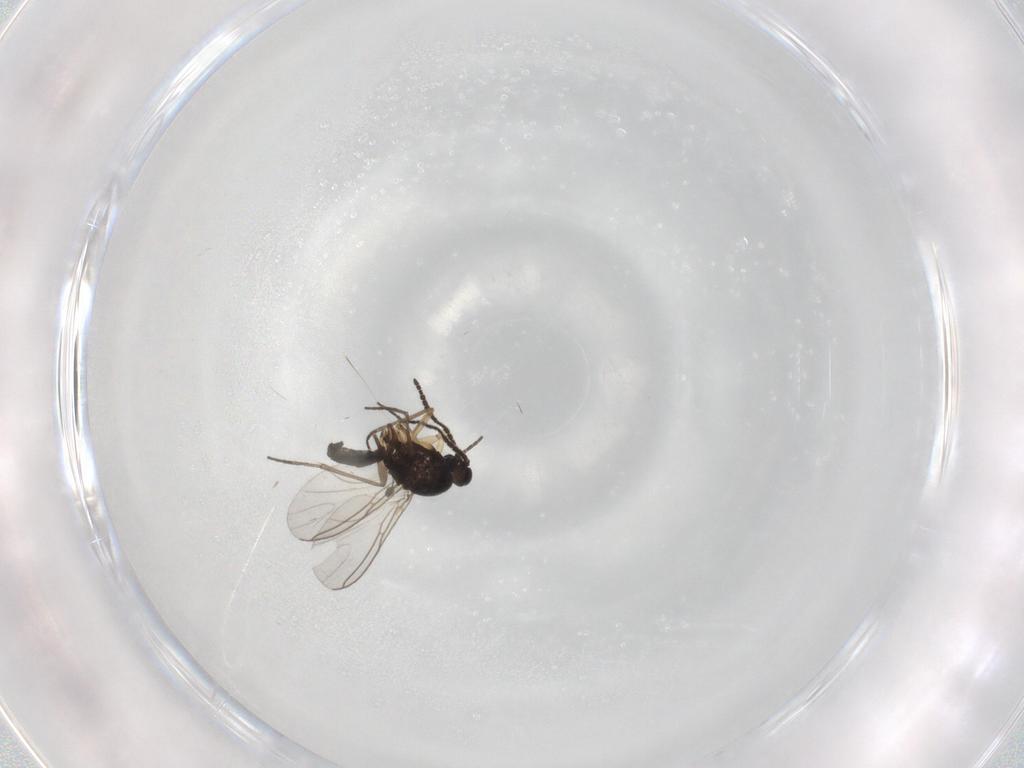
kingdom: Animalia
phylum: Arthropoda
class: Insecta
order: Diptera
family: Sciaridae
